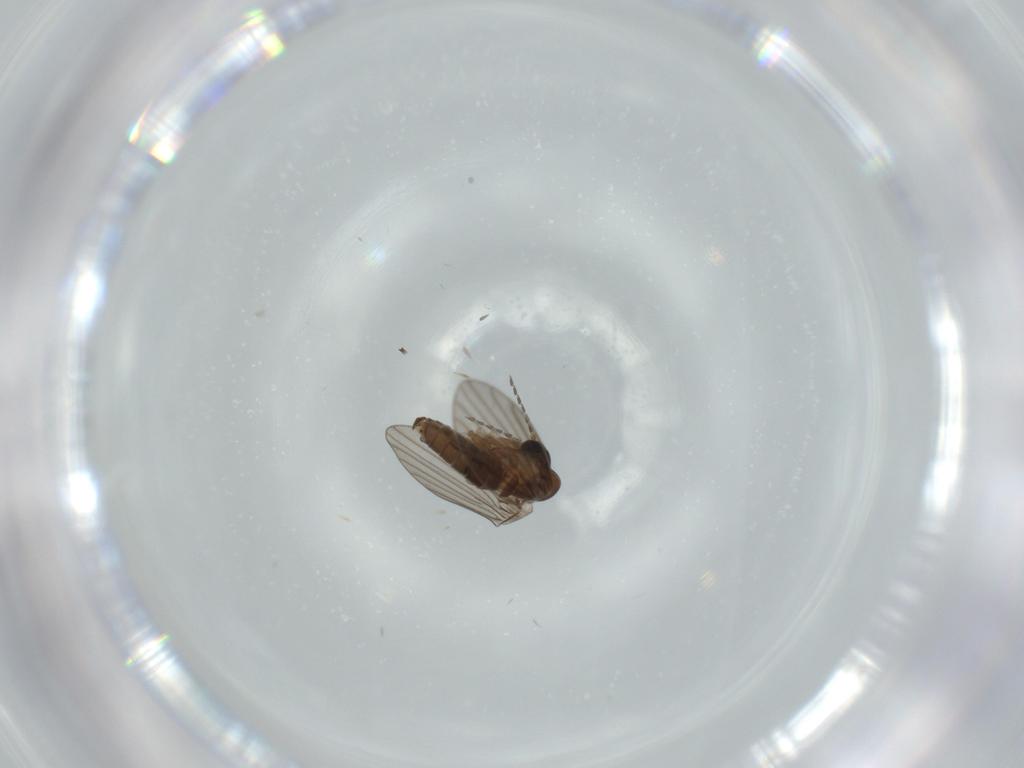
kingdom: Animalia
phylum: Arthropoda
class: Insecta
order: Diptera
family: Psychodidae
